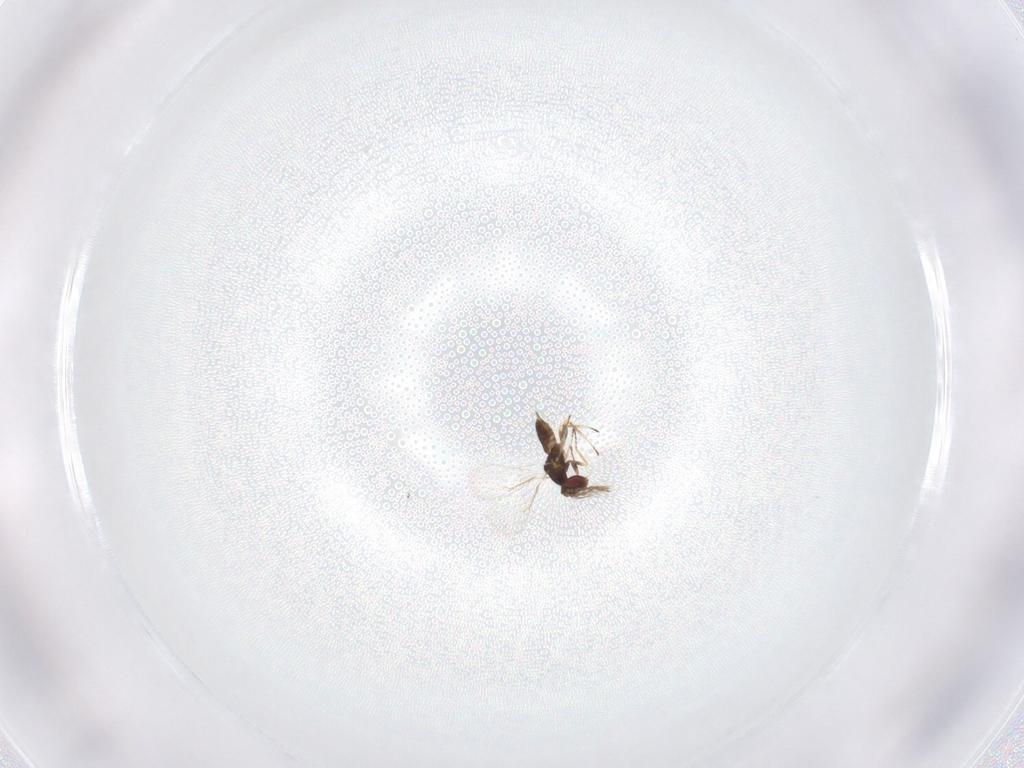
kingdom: Animalia
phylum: Arthropoda
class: Insecta
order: Hymenoptera
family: Eulophidae
